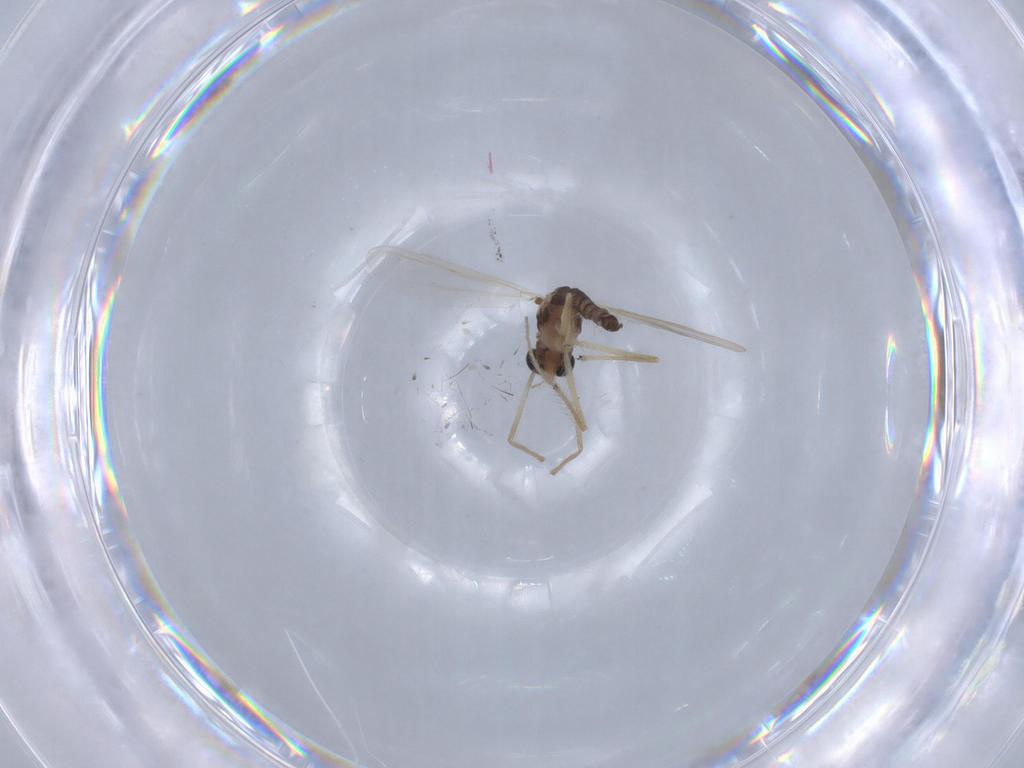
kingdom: Animalia
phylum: Arthropoda
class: Insecta
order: Diptera
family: Chironomidae
